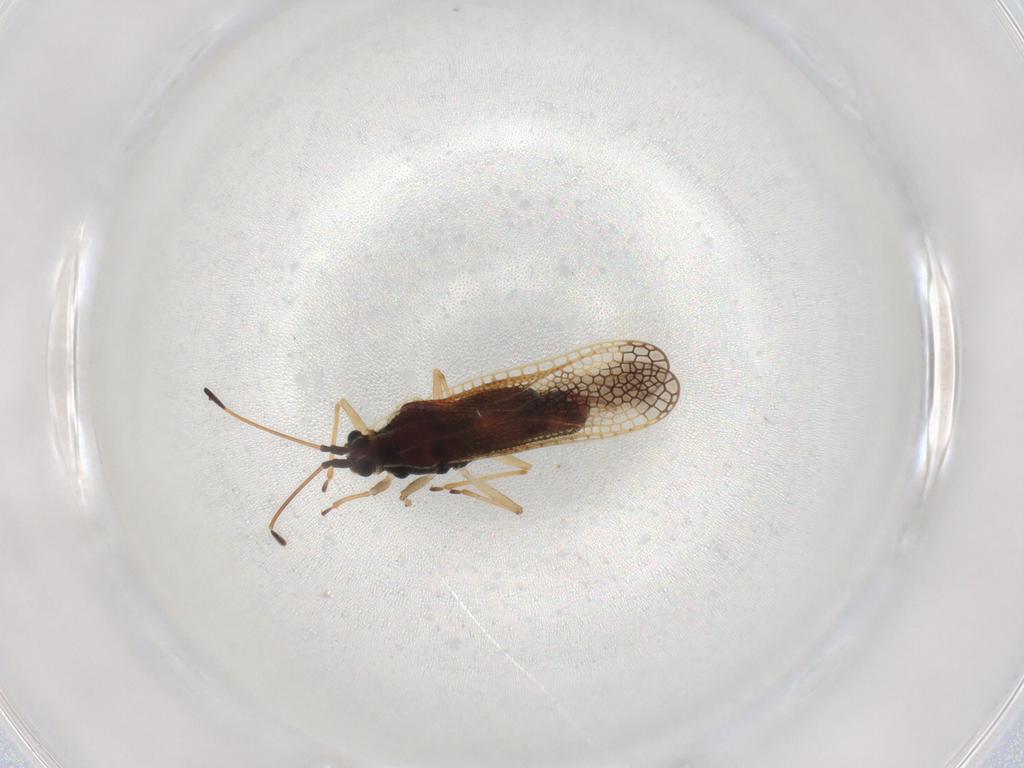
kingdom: Animalia
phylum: Arthropoda
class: Insecta
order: Hemiptera
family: Tingidae
